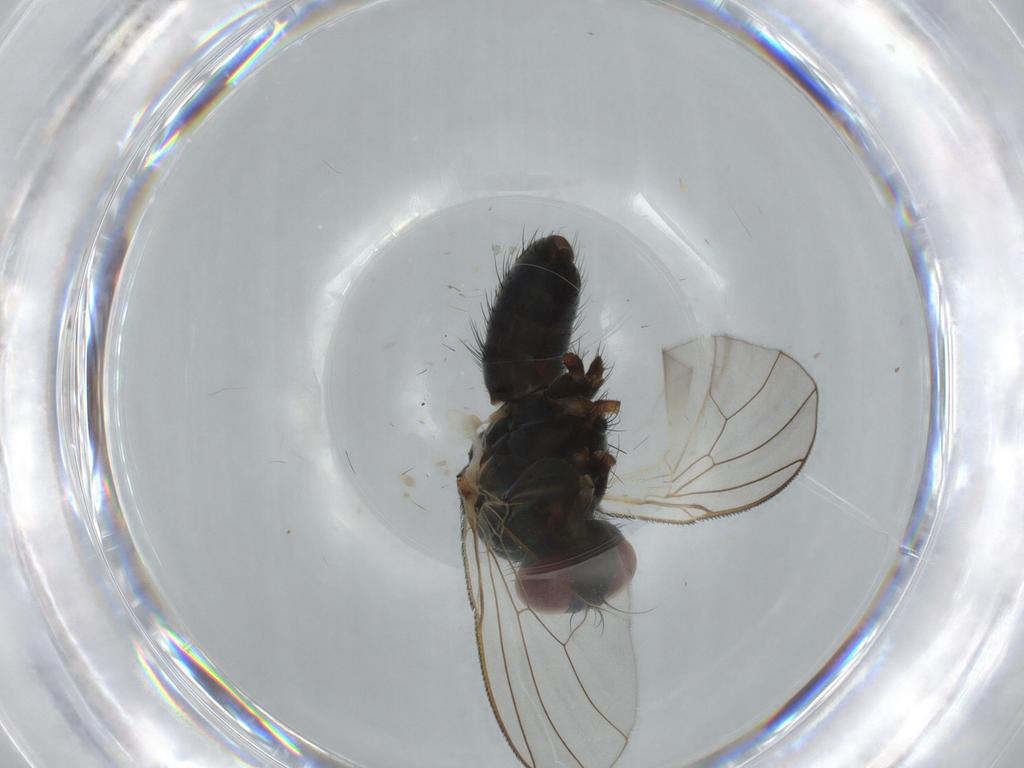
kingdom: Animalia
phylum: Arthropoda
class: Insecta
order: Diptera
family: Muscidae
